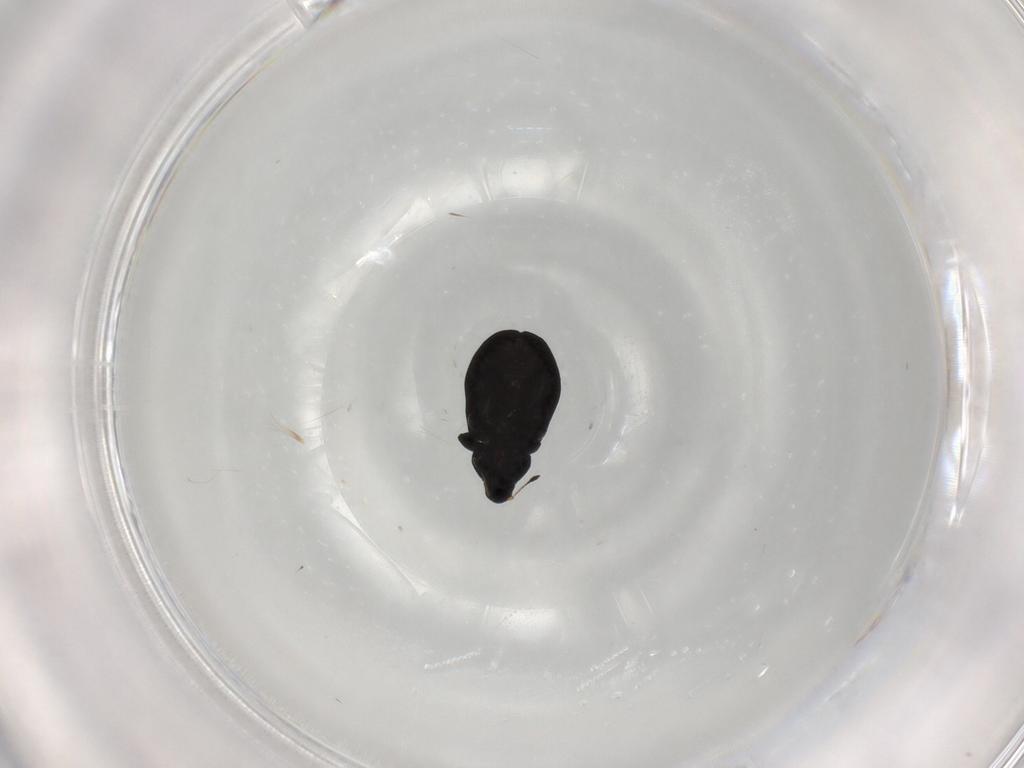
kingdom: Animalia
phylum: Arthropoda
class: Insecta
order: Coleoptera
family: Curculionidae
